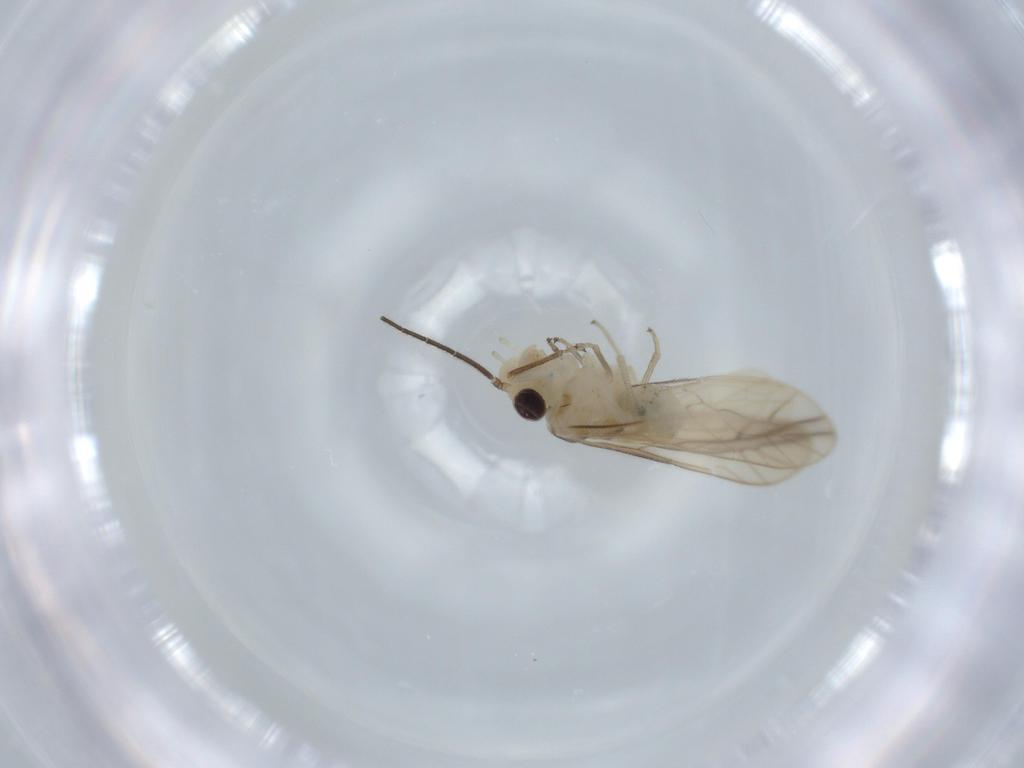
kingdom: Animalia
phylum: Arthropoda
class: Insecta
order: Psocodea
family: Caeciliusidae
